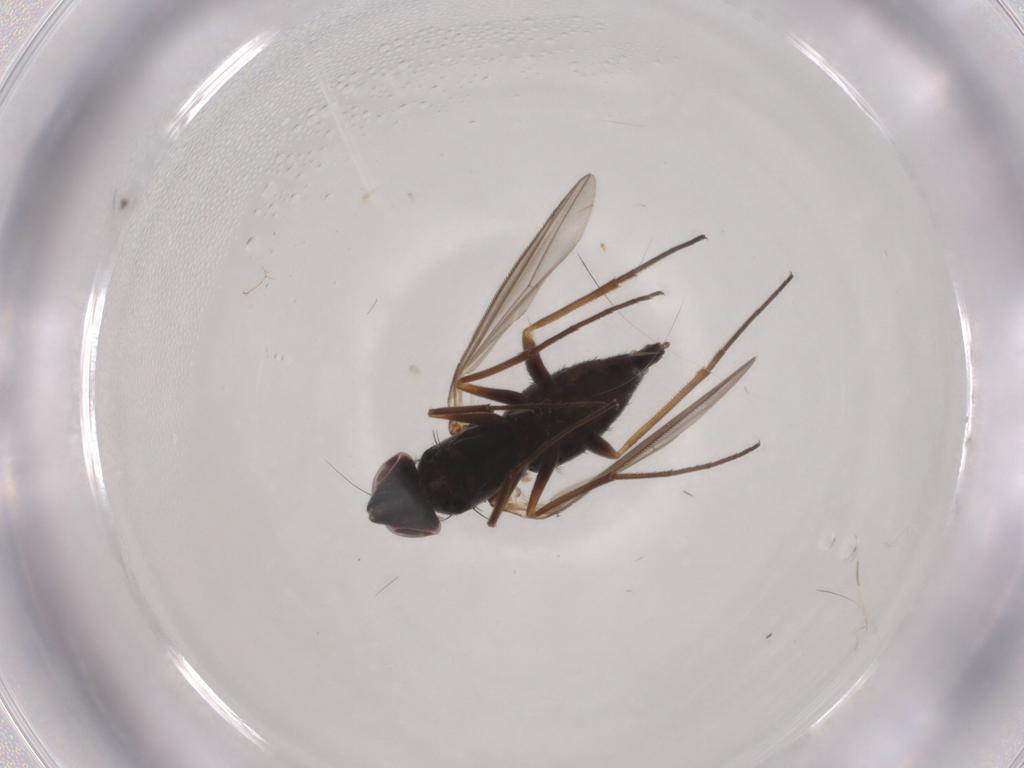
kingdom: Animalia
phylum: Arthropoda
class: Insecta
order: Diptera
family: Dolichopodidae
